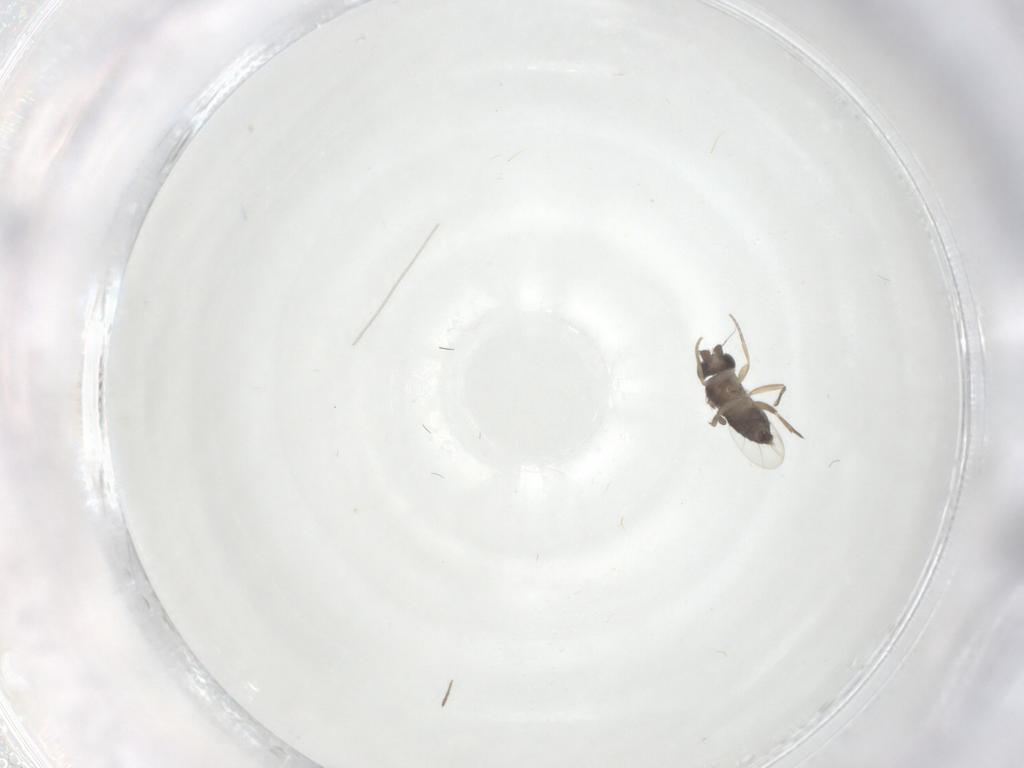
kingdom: Animalia
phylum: Arthropoda
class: Insecta
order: Diptera
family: Chironomidae
